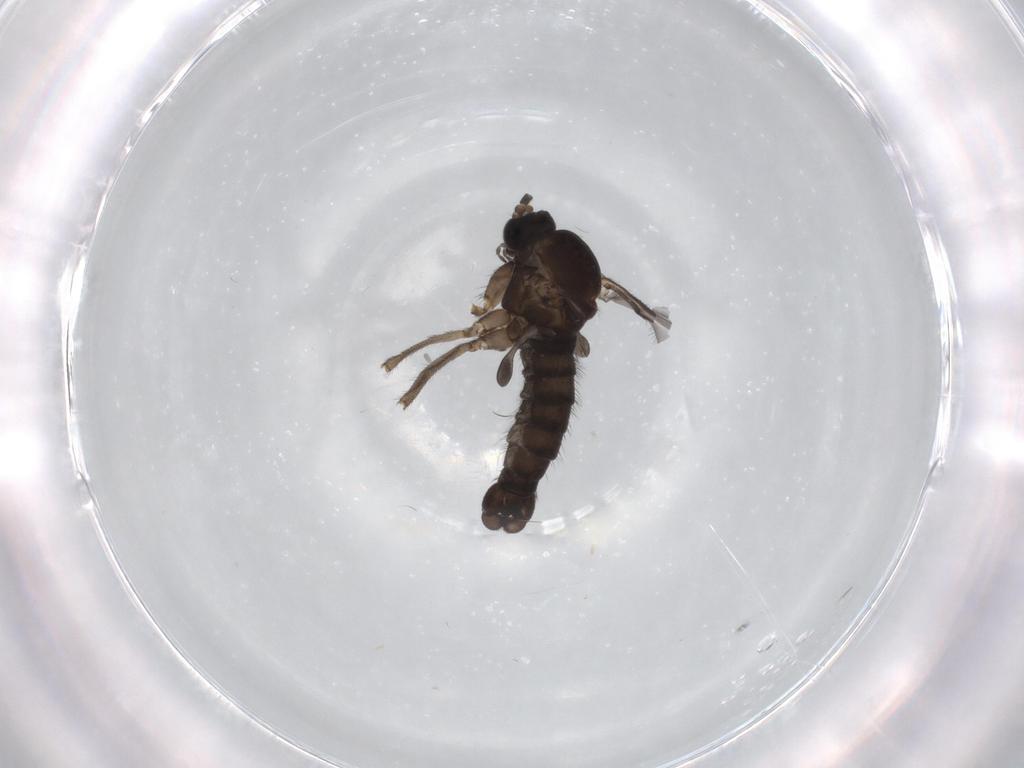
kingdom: Animalia
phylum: Arthropoda
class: Insecta
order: Diptera
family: Sciaridae
